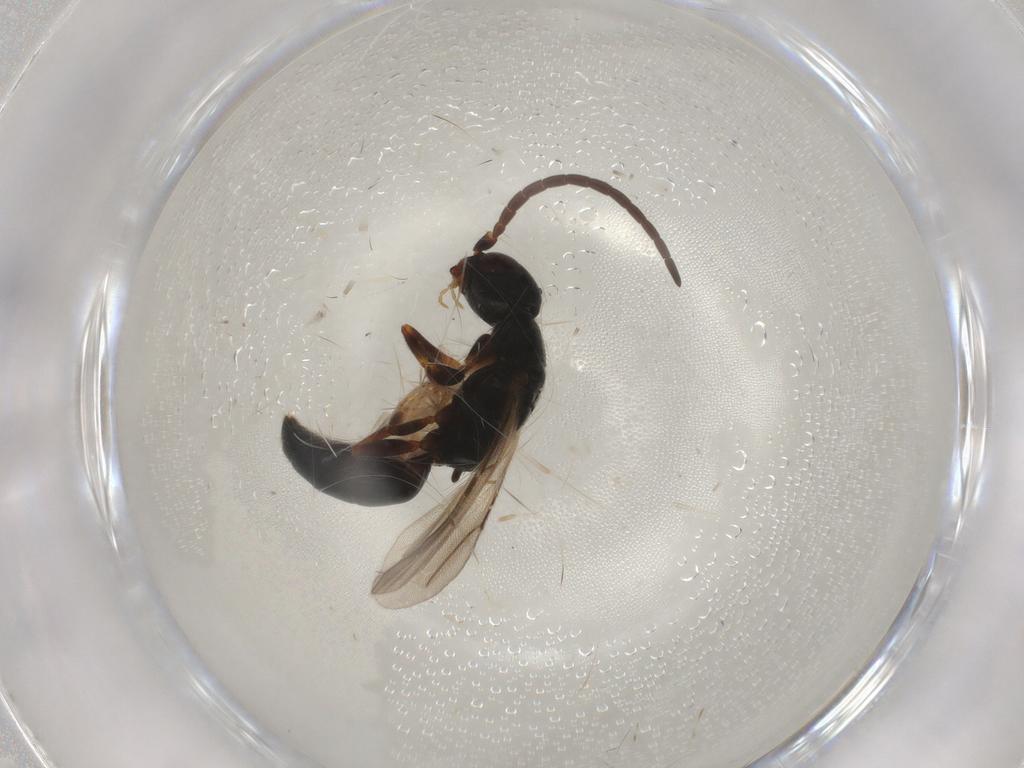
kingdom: Animalia
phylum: Arthropoda
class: Insecta
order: Hymenoptera
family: Bethylidae
